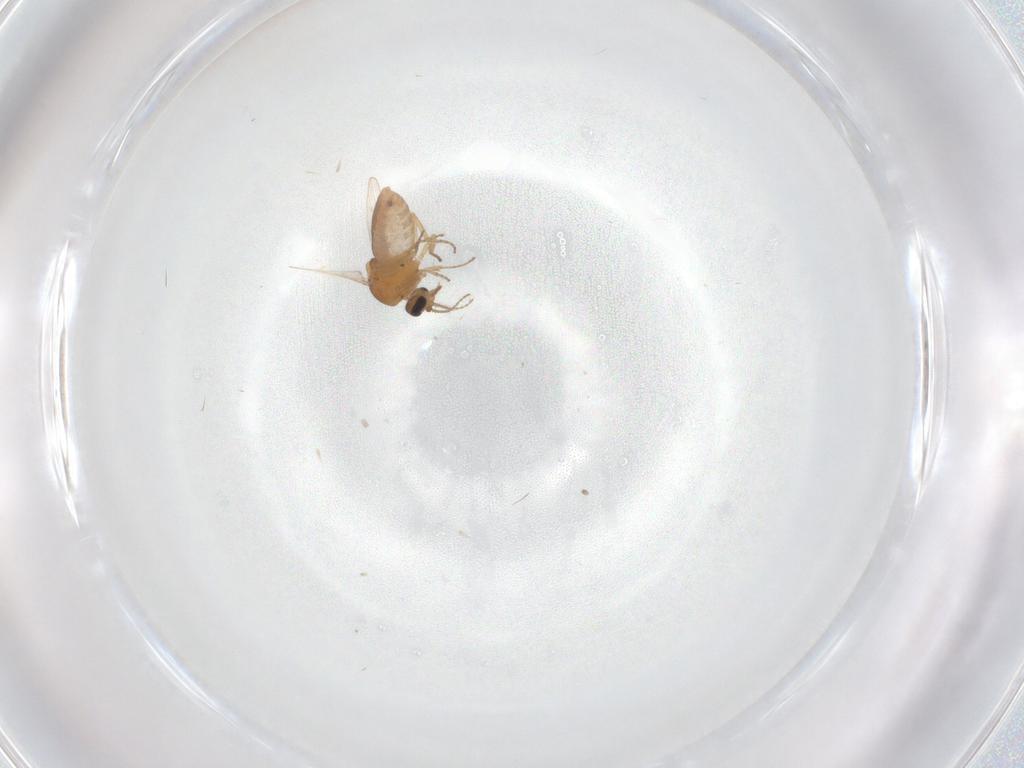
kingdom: Animalia
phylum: Arthropoda
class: Insecta
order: Diptera
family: Ceratopogonidae
